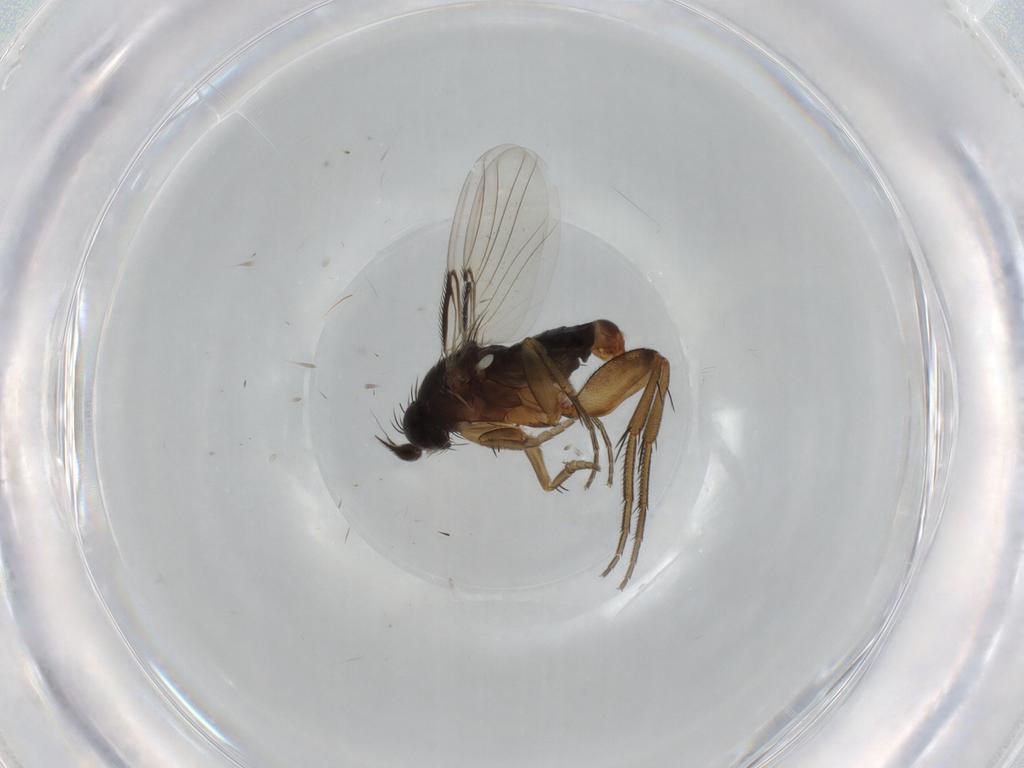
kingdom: Animalia
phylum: Arthropoda
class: Insecta
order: Diptera
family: Phoridae
